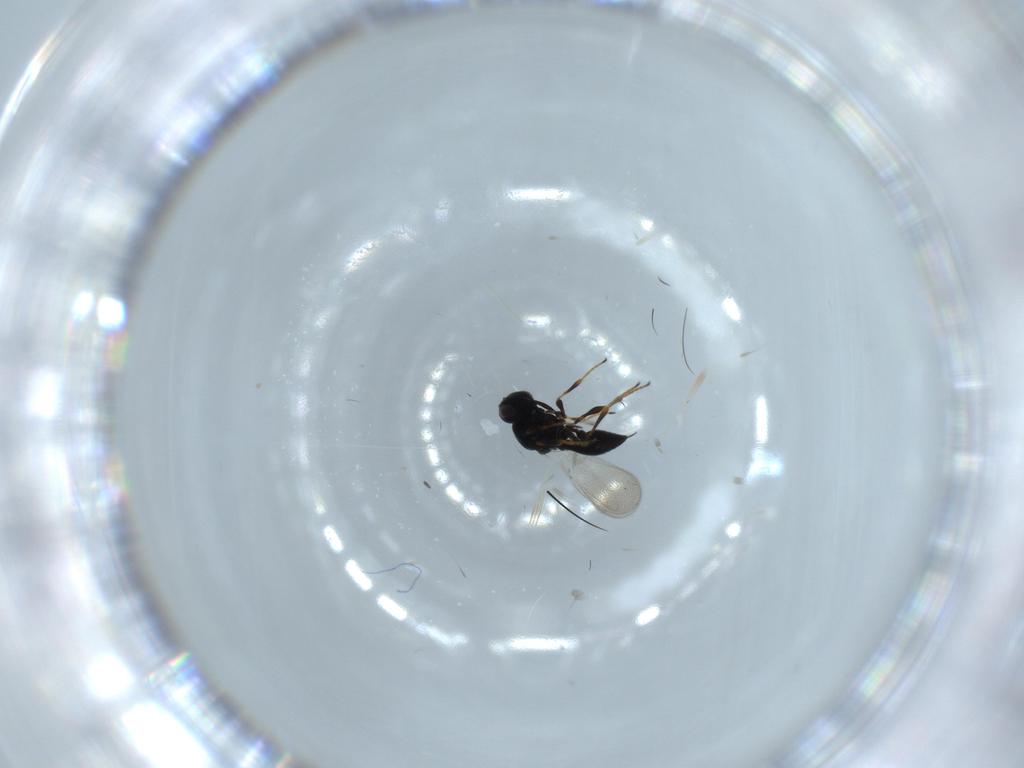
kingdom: Animalia
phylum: Arthropoda
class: Insecta
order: Hymenoptera
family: Platygastridae
